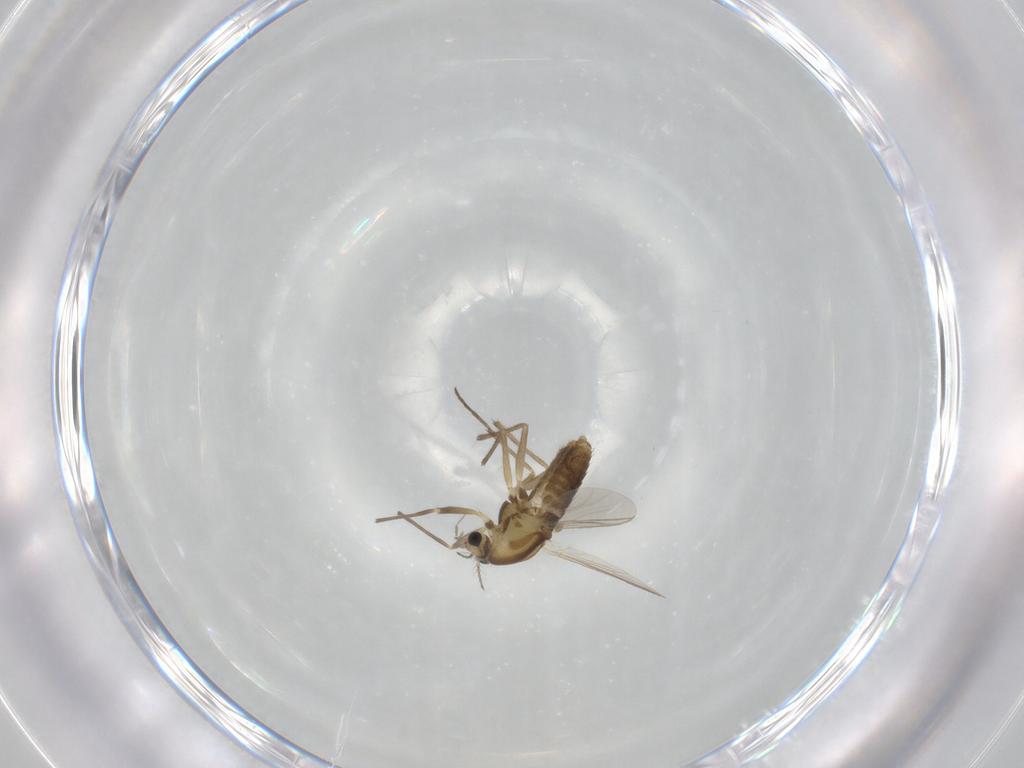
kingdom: Animalia
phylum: Arthropoda
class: Insecta
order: Diptera
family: Chironomidae
